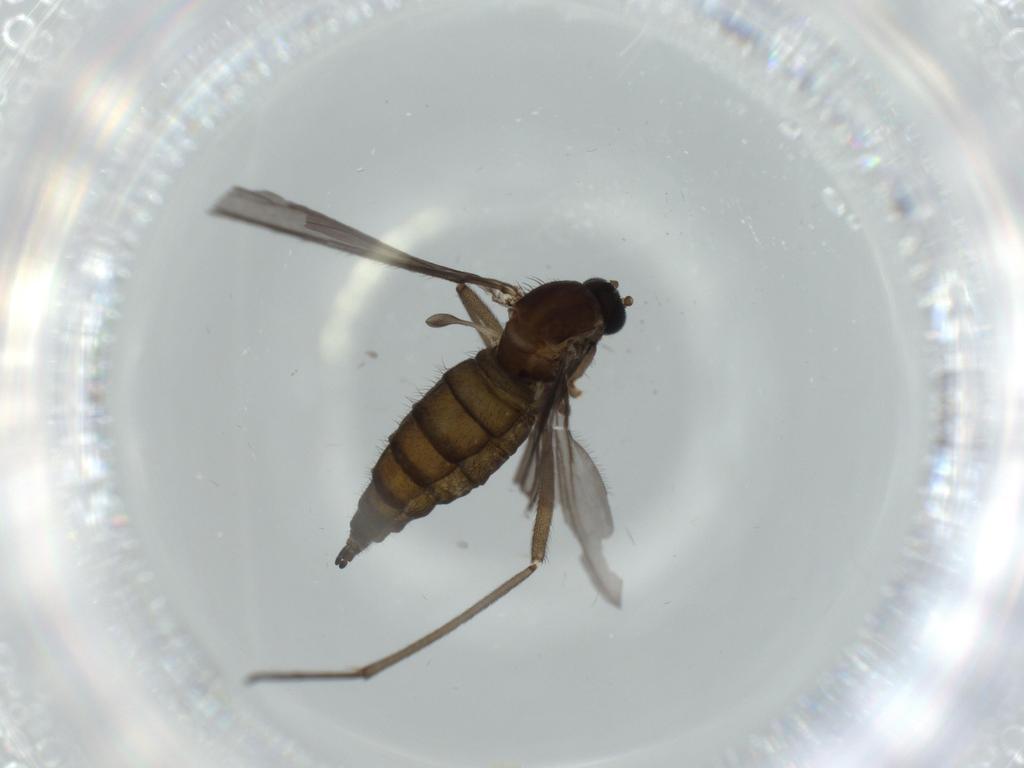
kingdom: Animalia
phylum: Arthropoda
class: Insecta
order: Diptera
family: Sciaridae
